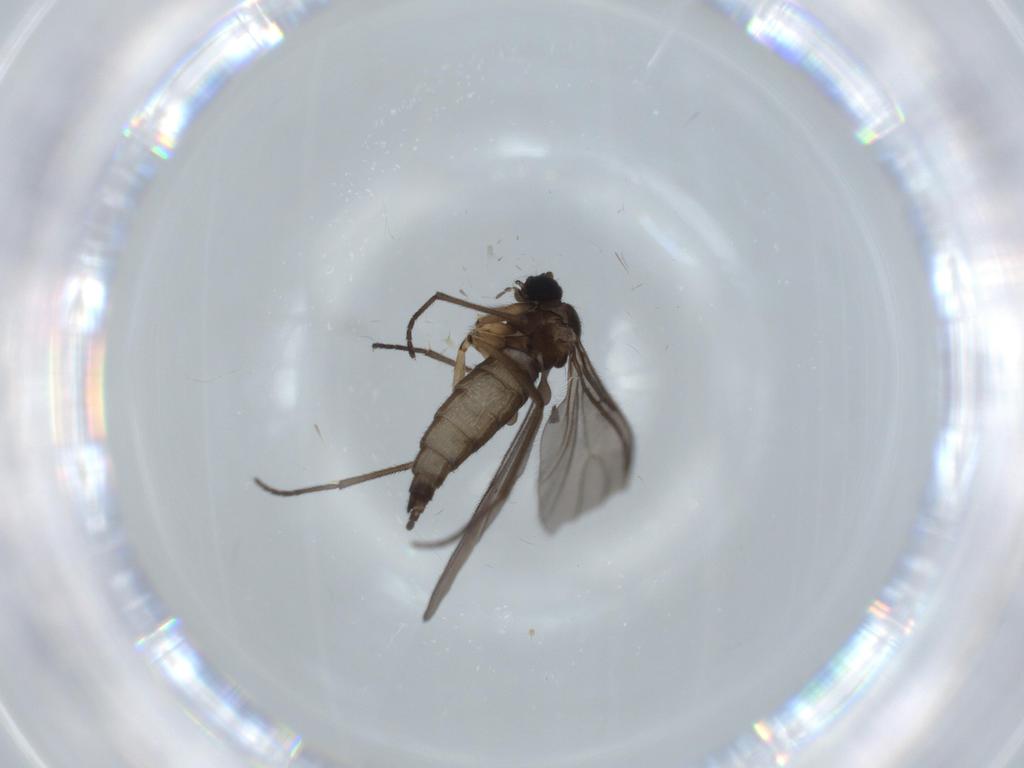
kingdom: Animalia
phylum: Arthropoda
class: Insecta
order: Diptera
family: Sciaridae
